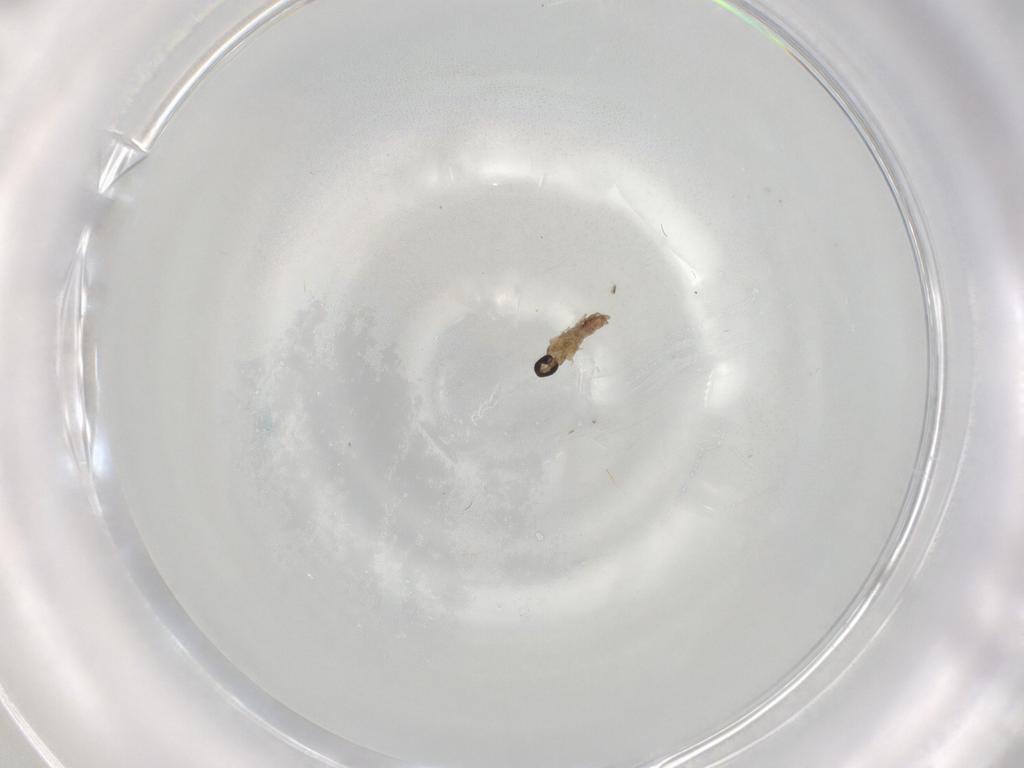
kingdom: Animalia
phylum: Arthropoda
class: Insecta
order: Diptera
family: Cecidomyiidae
